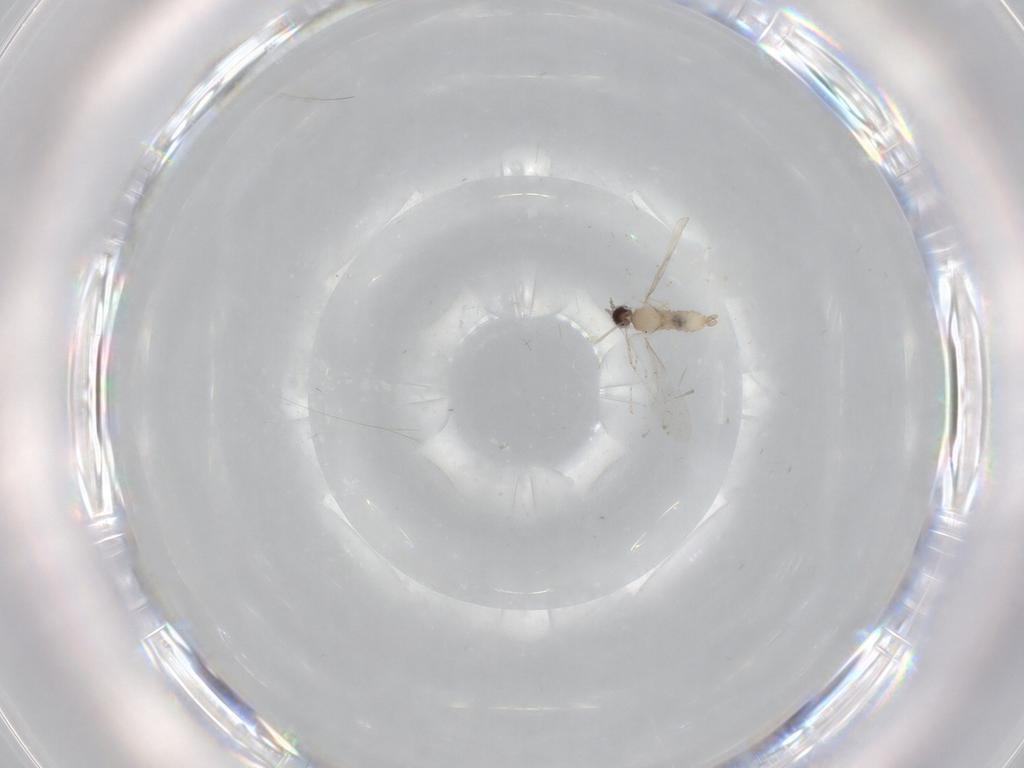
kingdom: Animalia
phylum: Arthropoda
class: Insecta
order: Diptera
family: Cecidomyiidae
